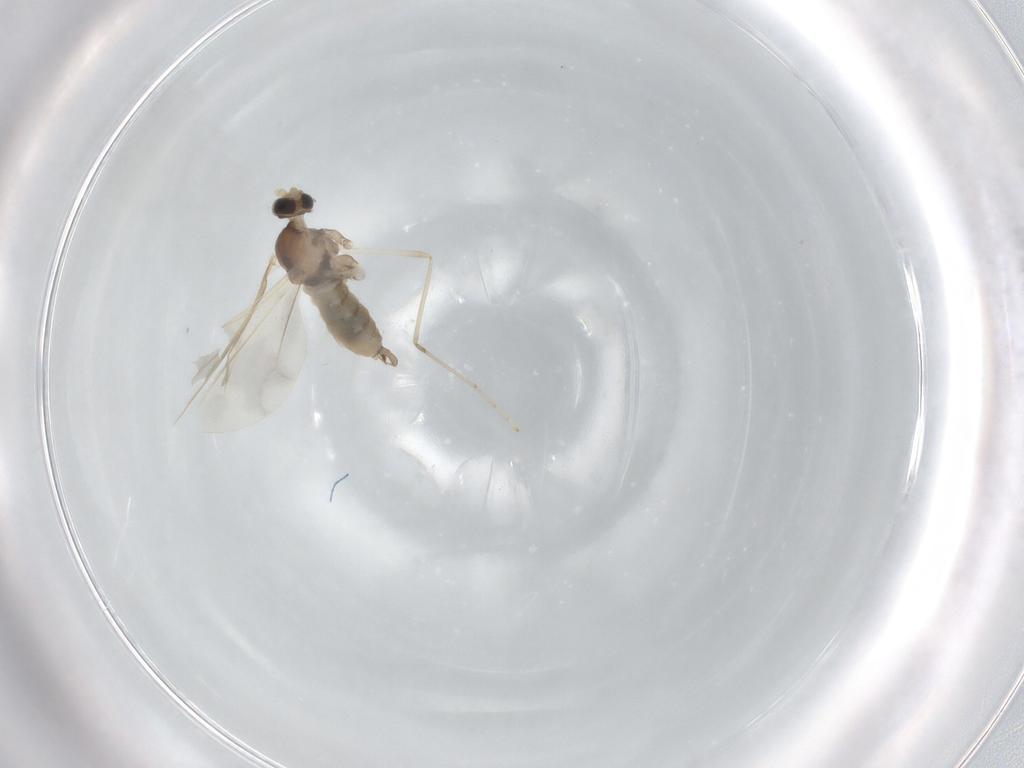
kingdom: Animalia
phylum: Arthropoda
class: Insecta
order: Diptera
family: Cecidomyiidae
